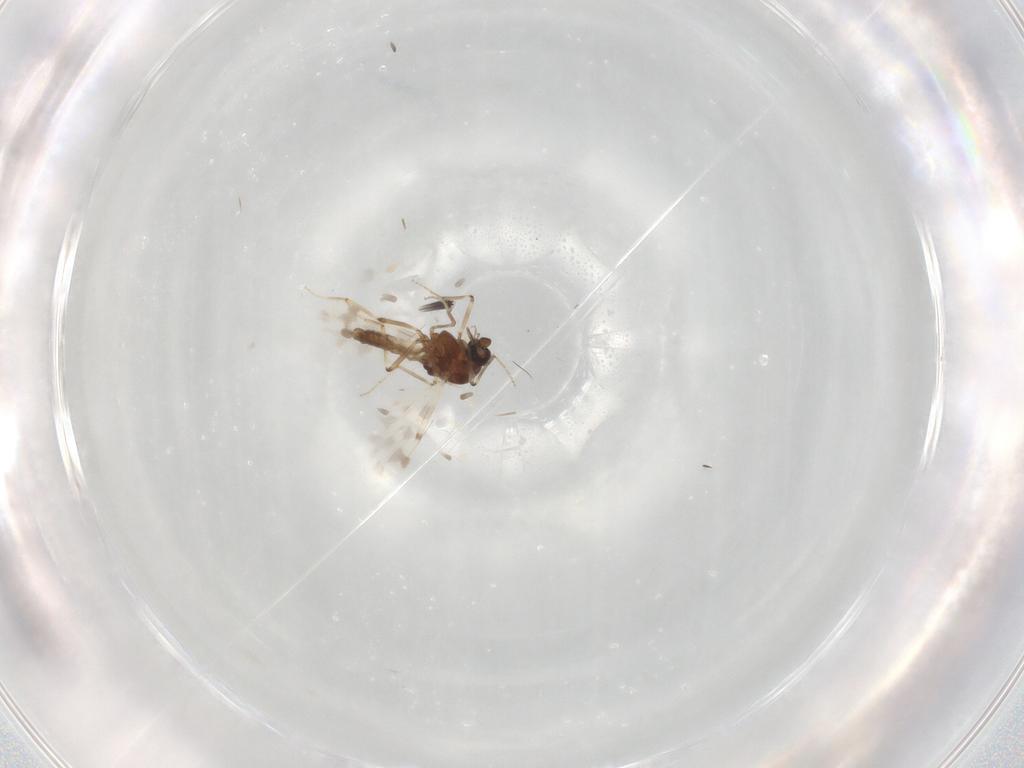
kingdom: Animalia
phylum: Arthropoda
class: Insecta
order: Diptera
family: Ceratopogonidae
